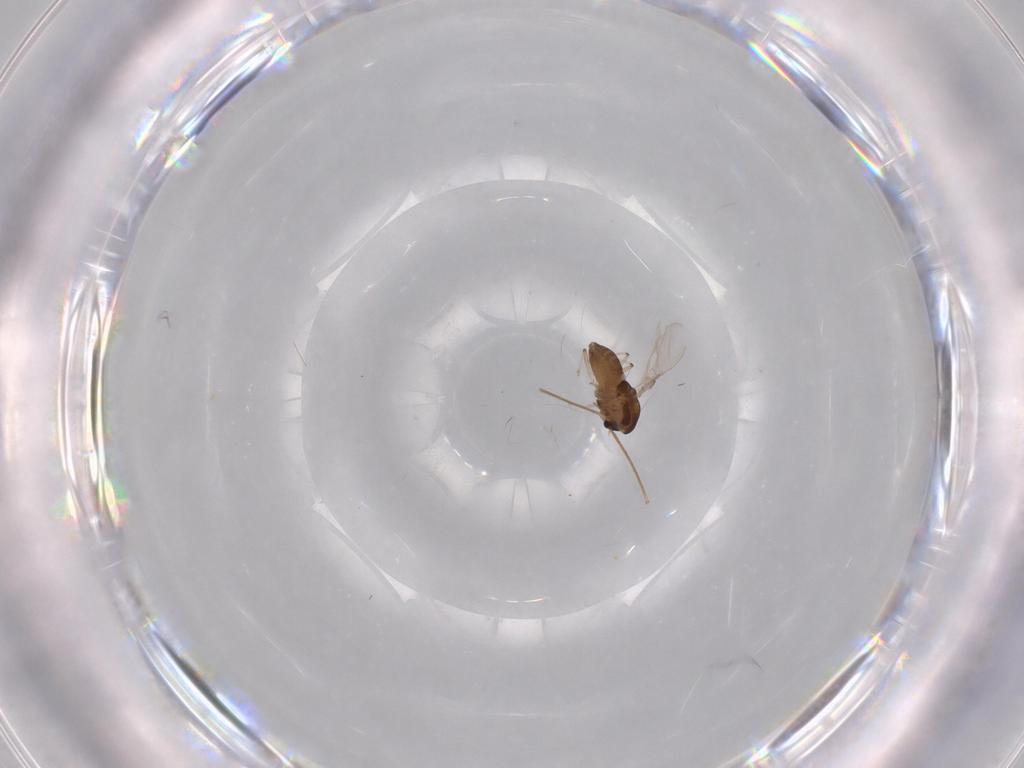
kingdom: Animalia
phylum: Arthropoda
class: Insecta
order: Diptera
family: Chironomidae
